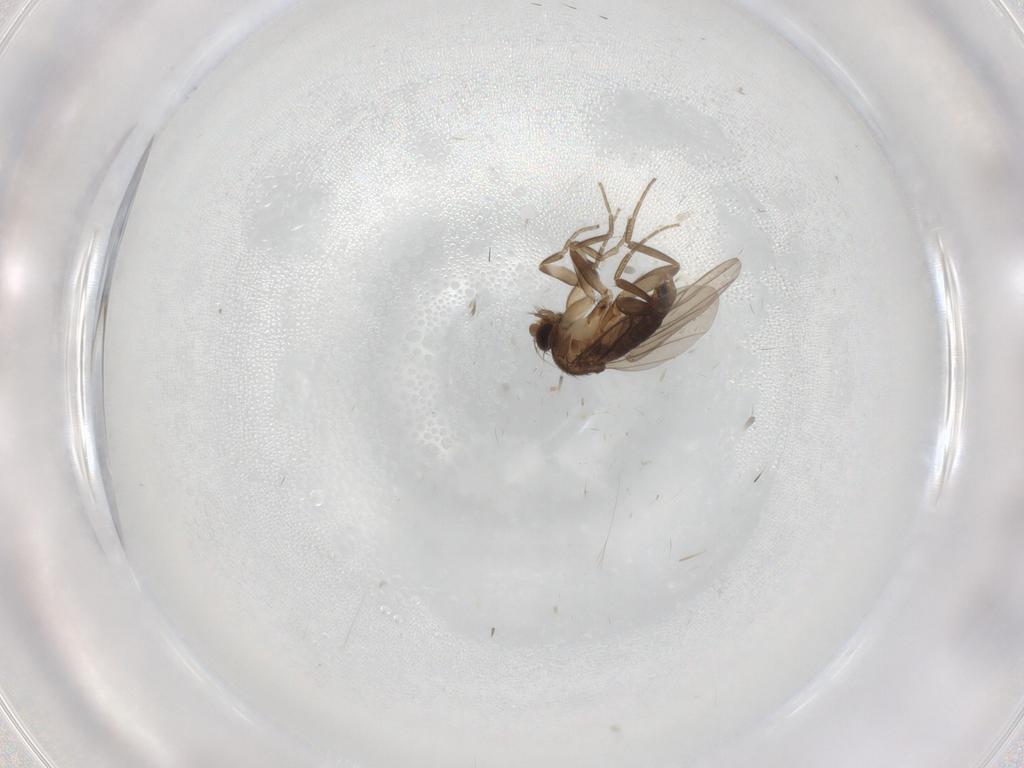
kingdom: Animalia
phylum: Arthropoda
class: Insecta
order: Diptera
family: Phoridae
